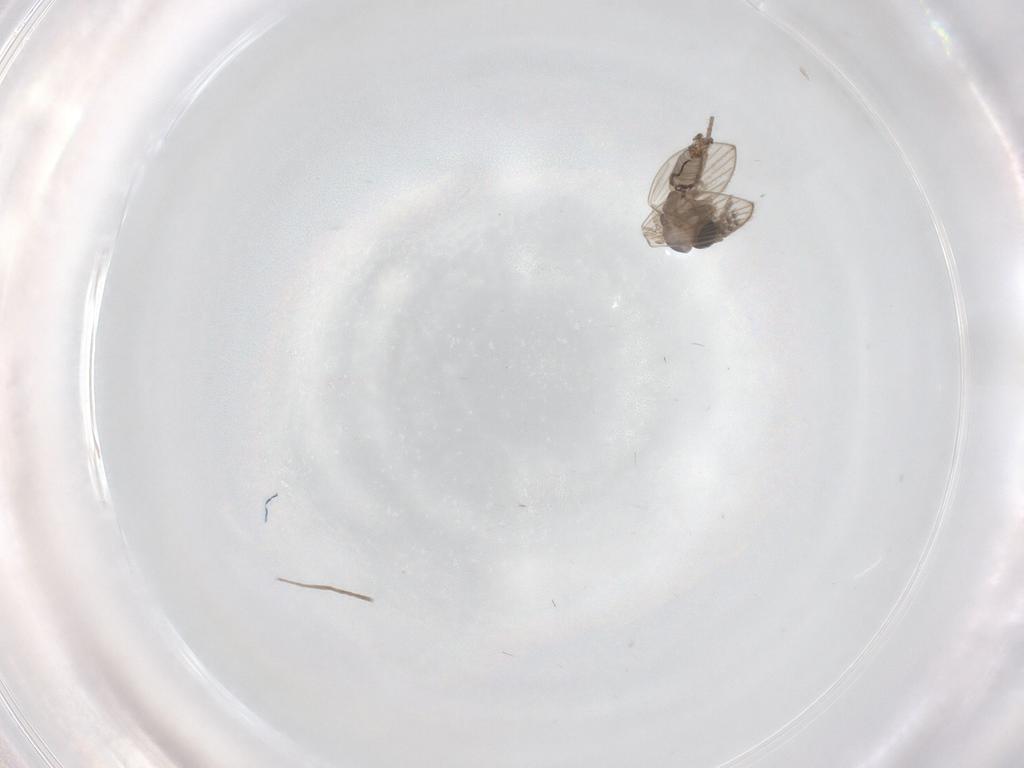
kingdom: Animalia
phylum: Arthropoda
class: Insecta
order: Diptera
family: Psychodidae
